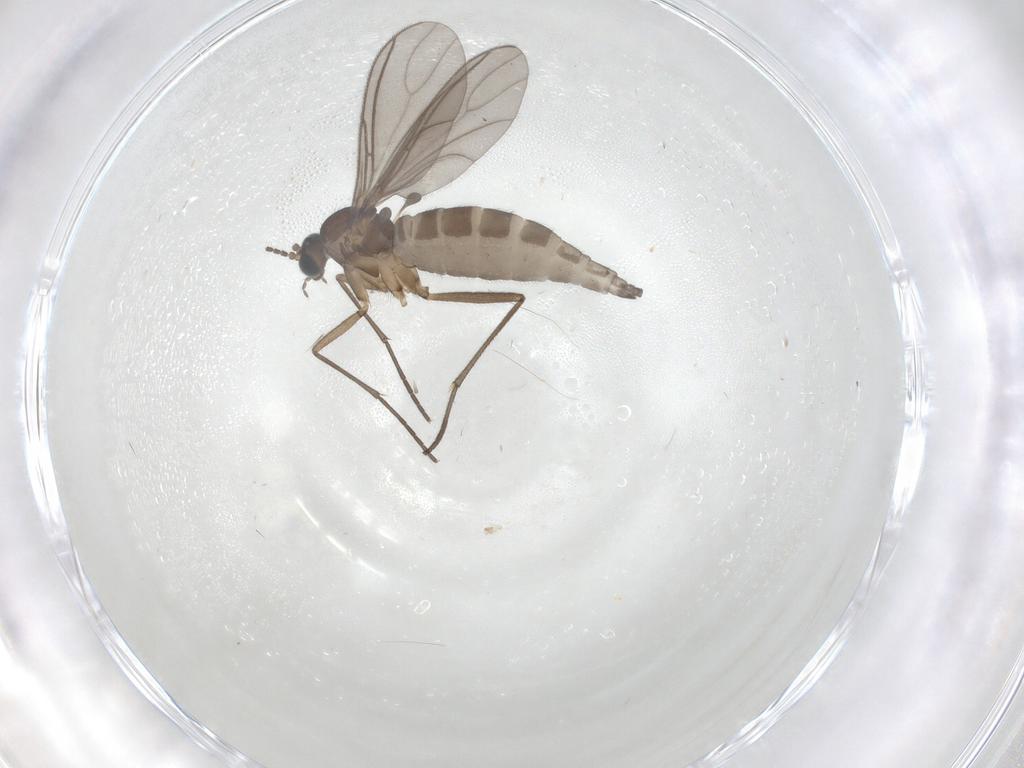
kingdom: Animalia
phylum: Arthropoda
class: Insecta
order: Diptera
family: Sciaridae
